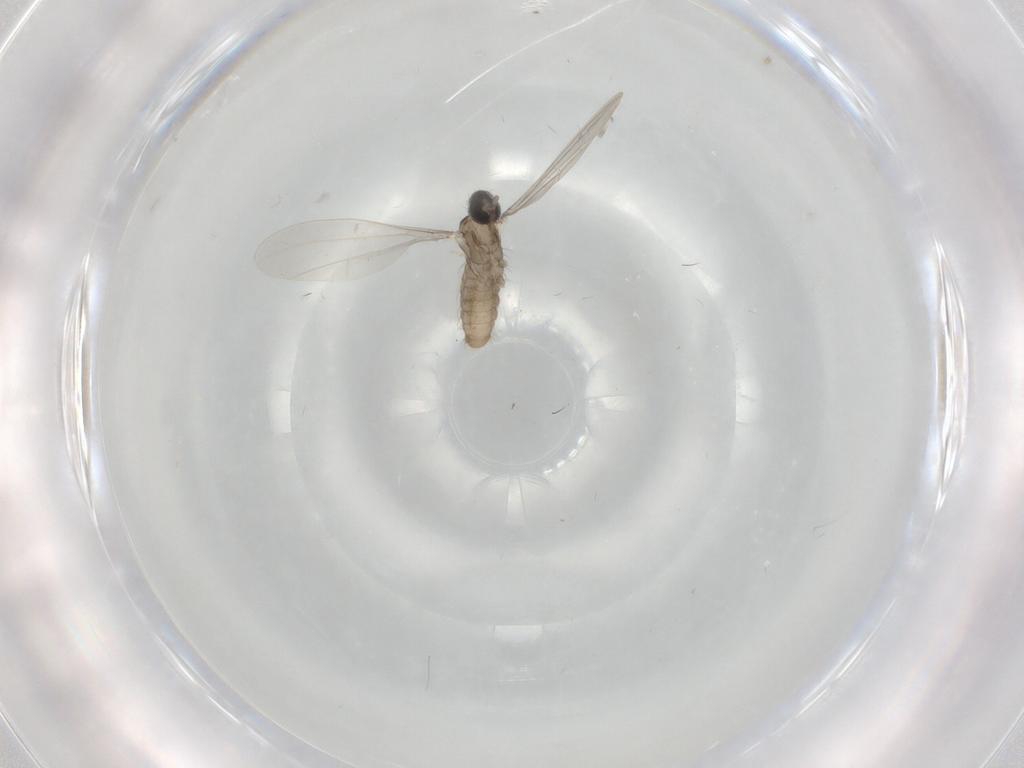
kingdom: Animalia
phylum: Arthropoda
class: Insecta
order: Diptera
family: Cecidomyiidae
